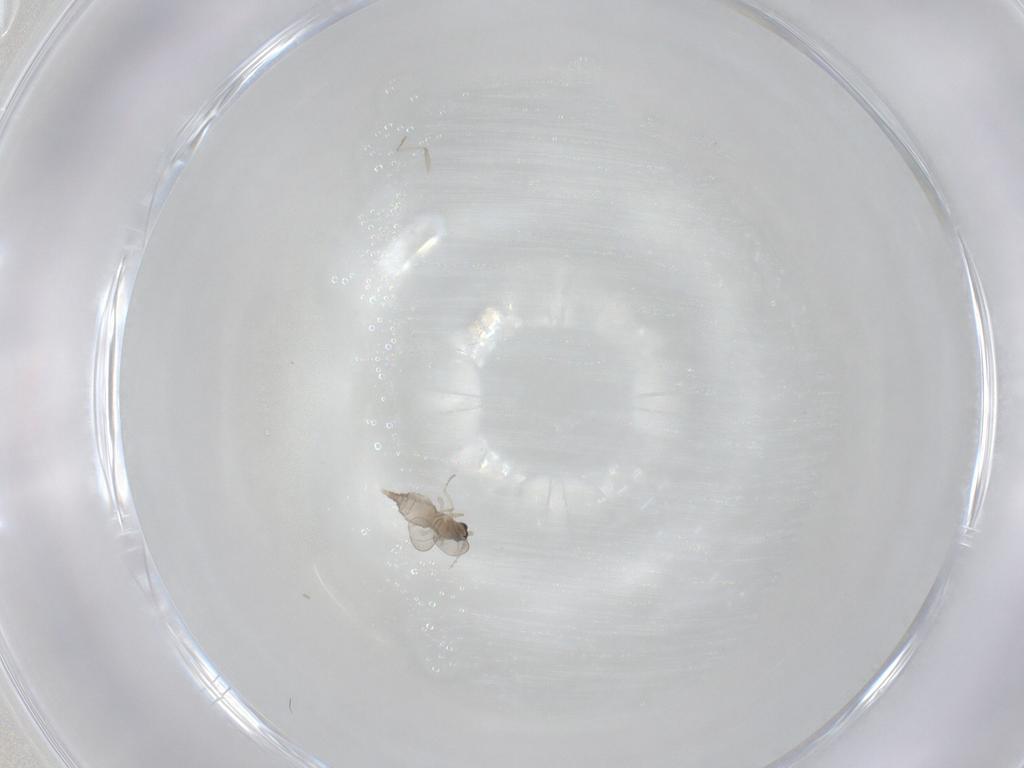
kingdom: Animalia
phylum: Arthropoda
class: Insecta
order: Diptera
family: Cecidomyiidae
